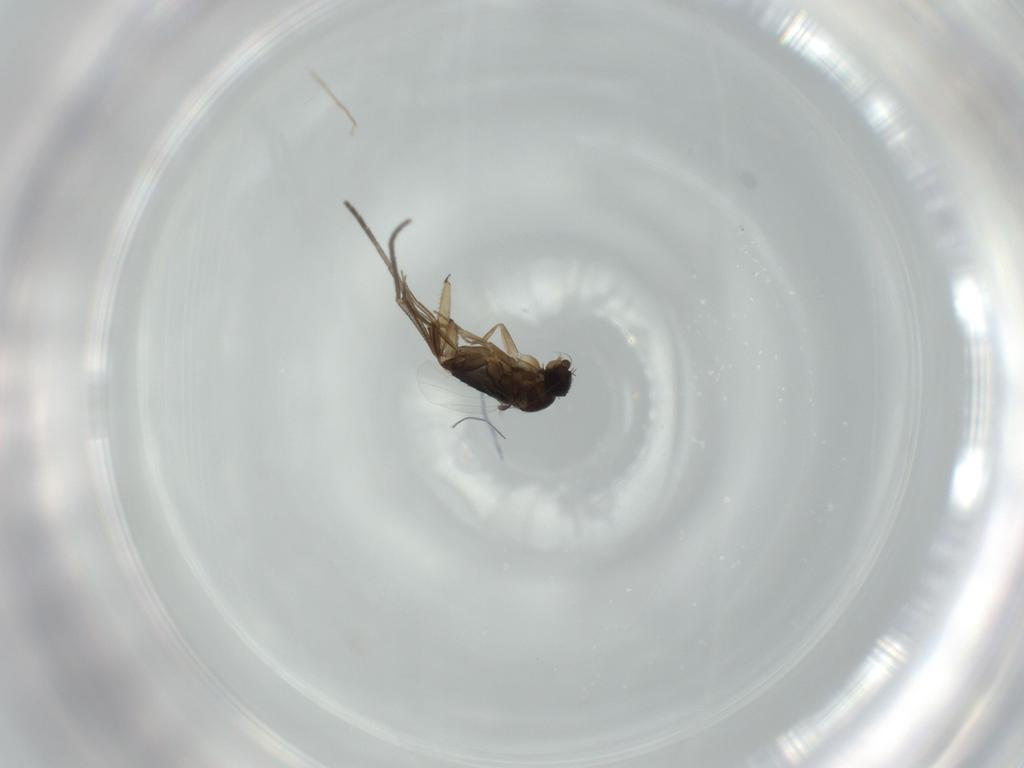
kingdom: Animalia
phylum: Arthropoda
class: Insecta
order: Diptera
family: Phoridae
